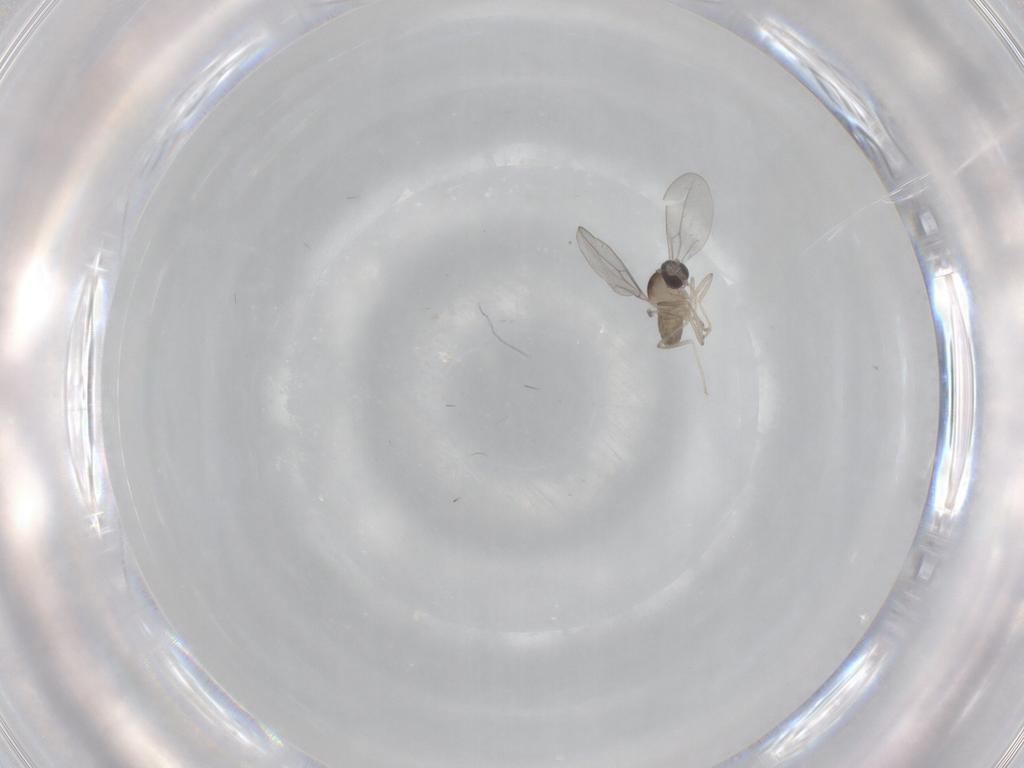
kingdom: Animalia
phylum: Arthropoda
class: Insecta
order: Diptera
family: Cecidomyiidae
